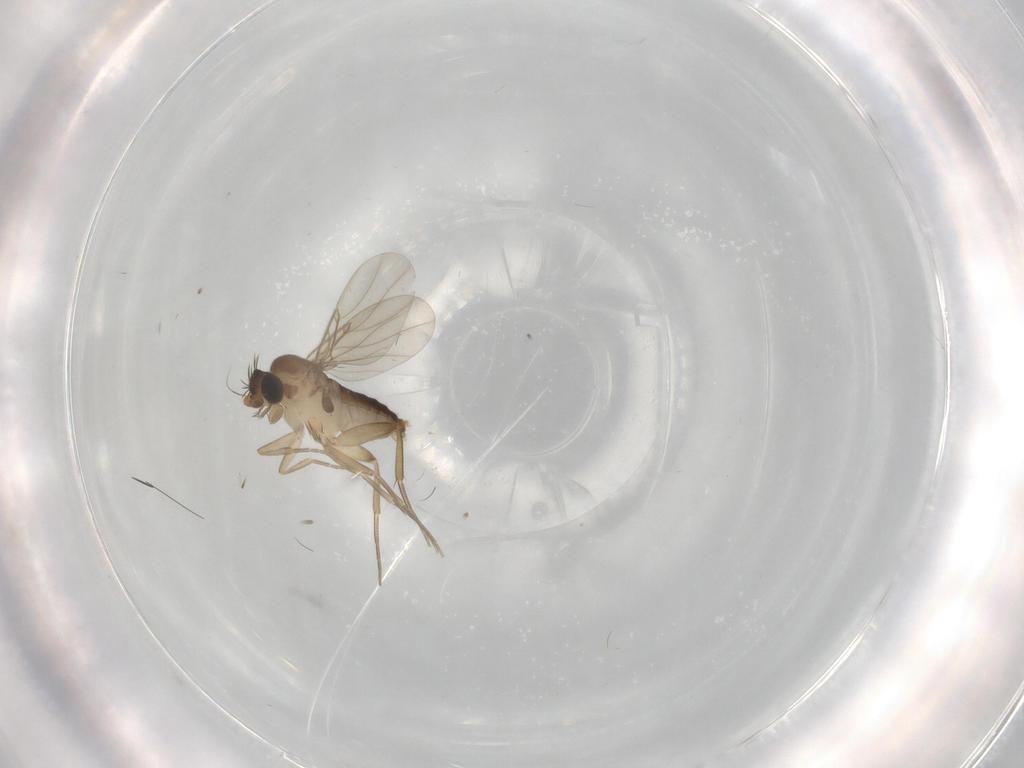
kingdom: Animalia
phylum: Arthropoda
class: Insecta
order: Diptera
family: Phoridae
